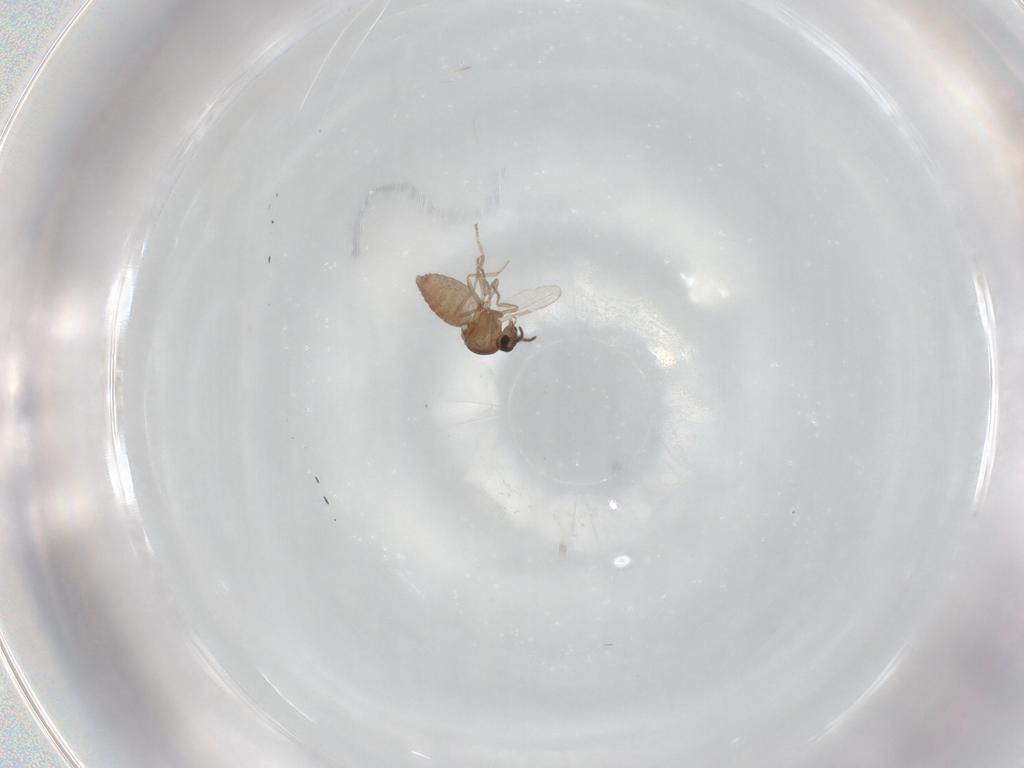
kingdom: Animalia
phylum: Arthropoda
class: Insecta
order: Diptera
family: Ceratopogonidae
